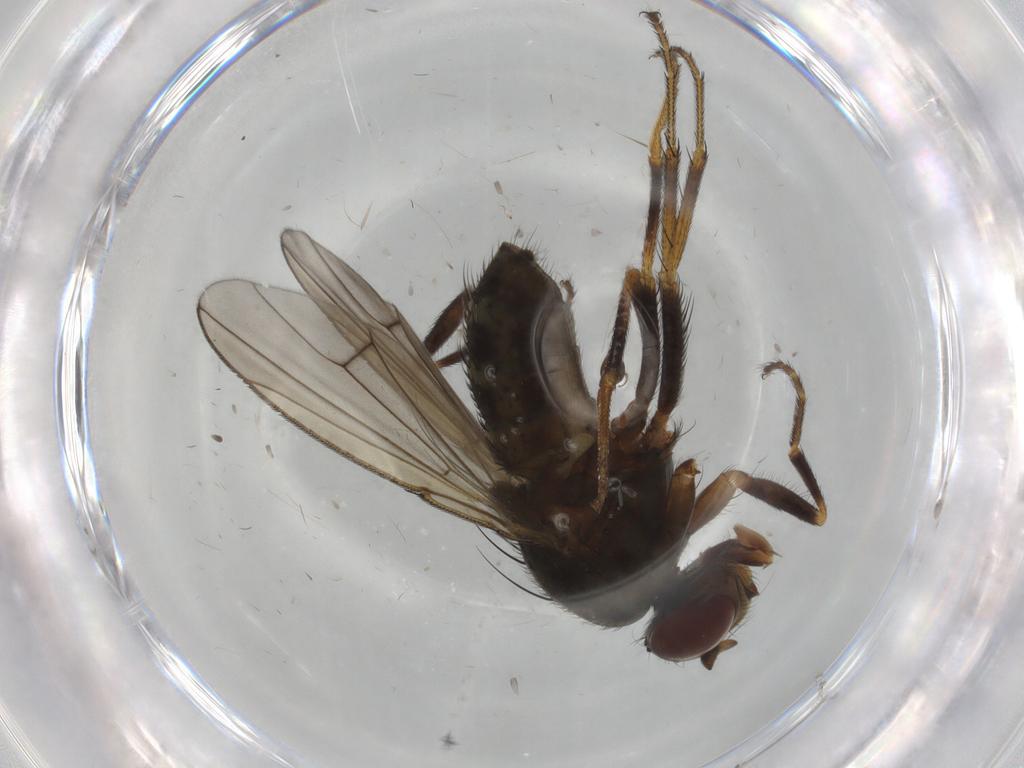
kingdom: Animalia
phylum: Arthropoda
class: Insecta
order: Diptera
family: Ephydridae
